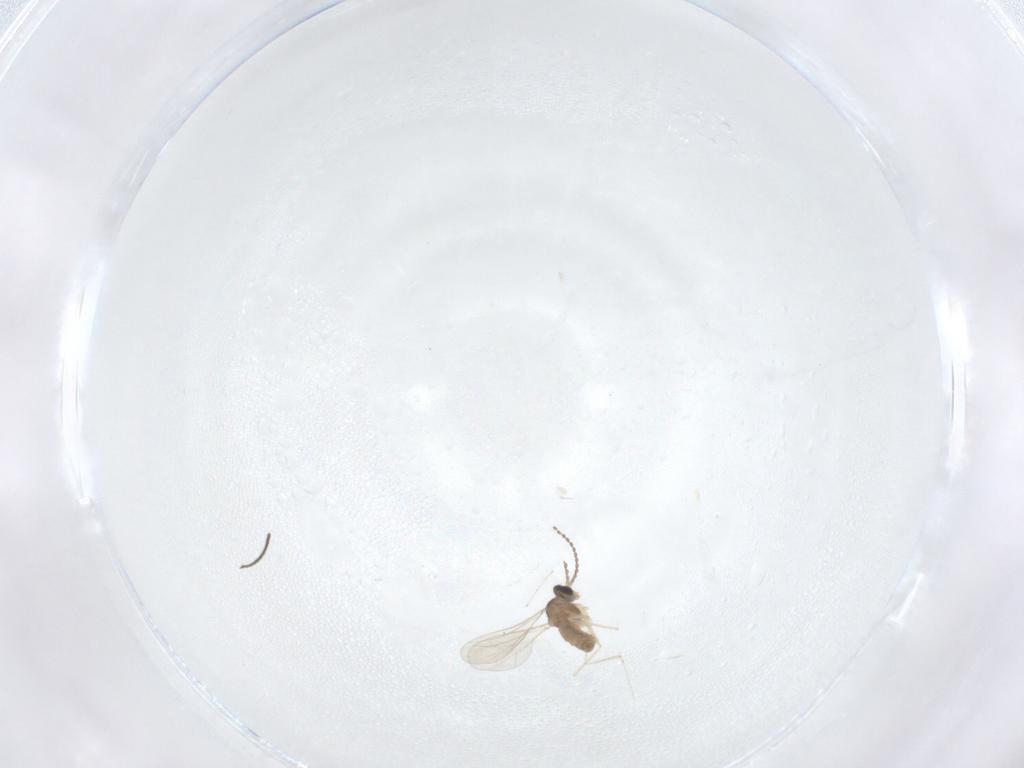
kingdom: Animalia
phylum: Arthropoda
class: Insecta
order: Diptera
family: Sciaridae
